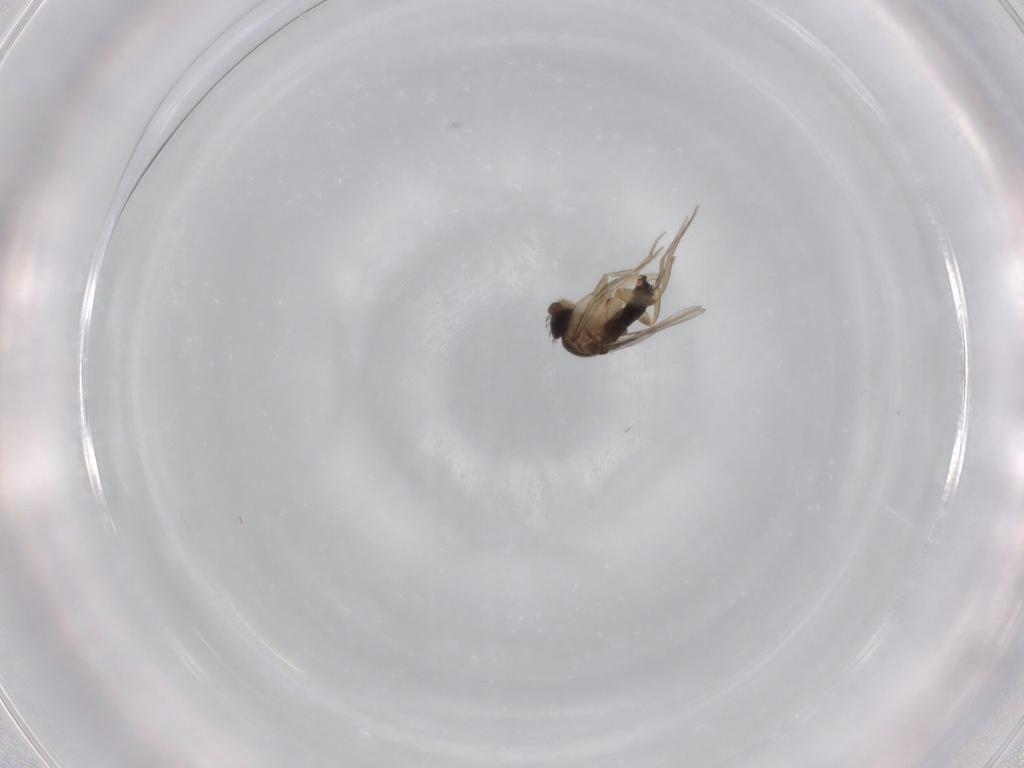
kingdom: Animalia
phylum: Arthropoda
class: Insecta
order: Diptera
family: Phoridae
